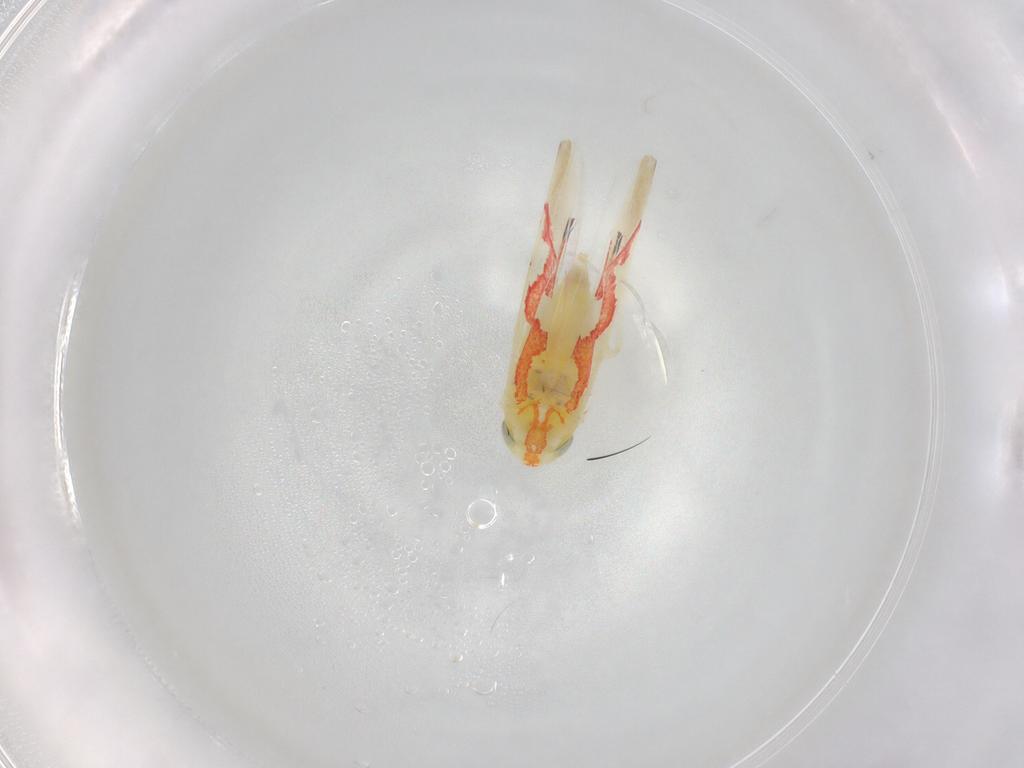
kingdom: Animalia
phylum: Arthropoda
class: Insecta
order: Hemiptera
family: Cicadellidae
